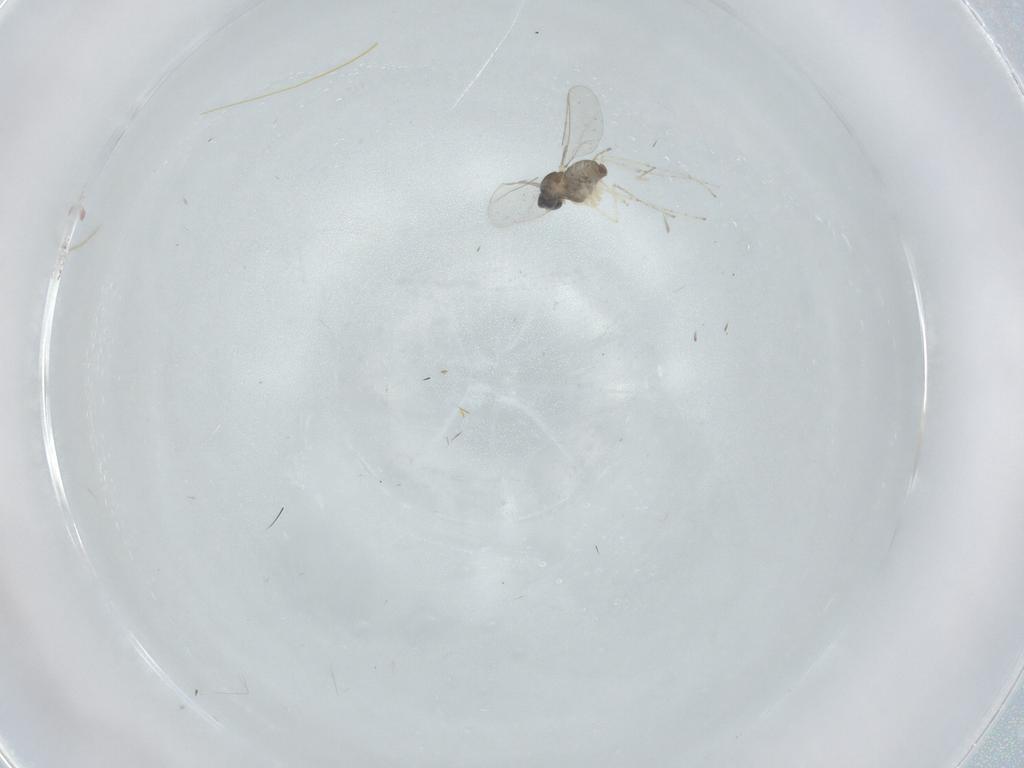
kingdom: Animalia
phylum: Arthropoda
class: Insecta
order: Diptera
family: Cecidomyiidae
